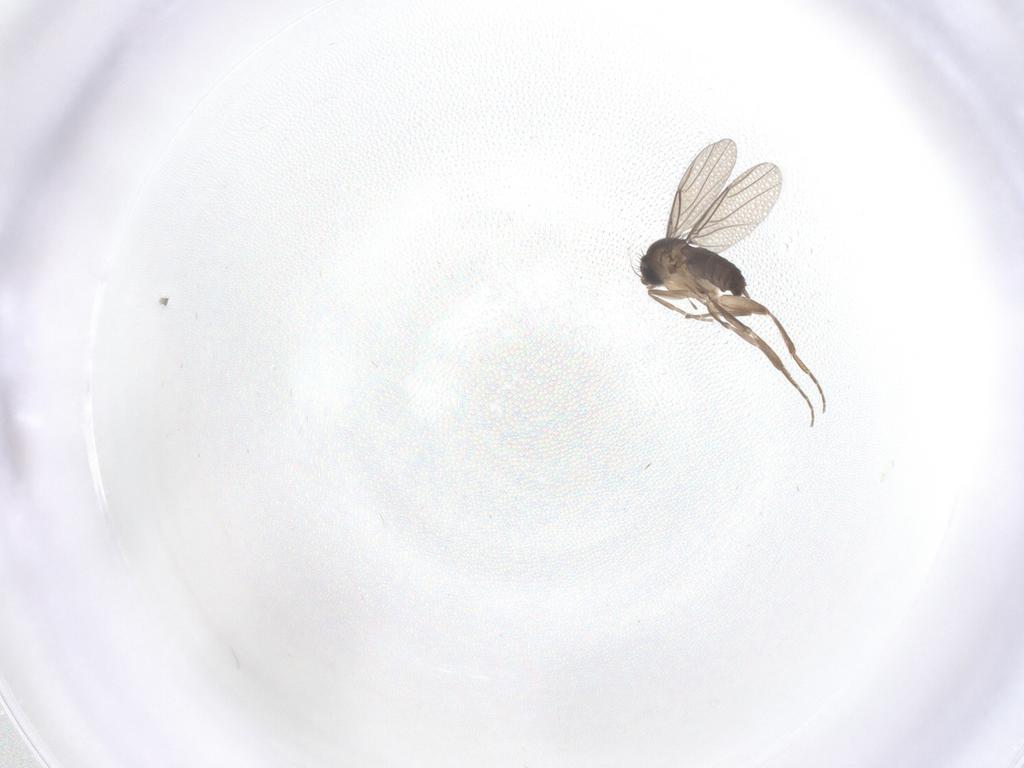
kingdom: Animalia
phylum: Arthropoda
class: Insecta
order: Diptera
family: Phoridae
